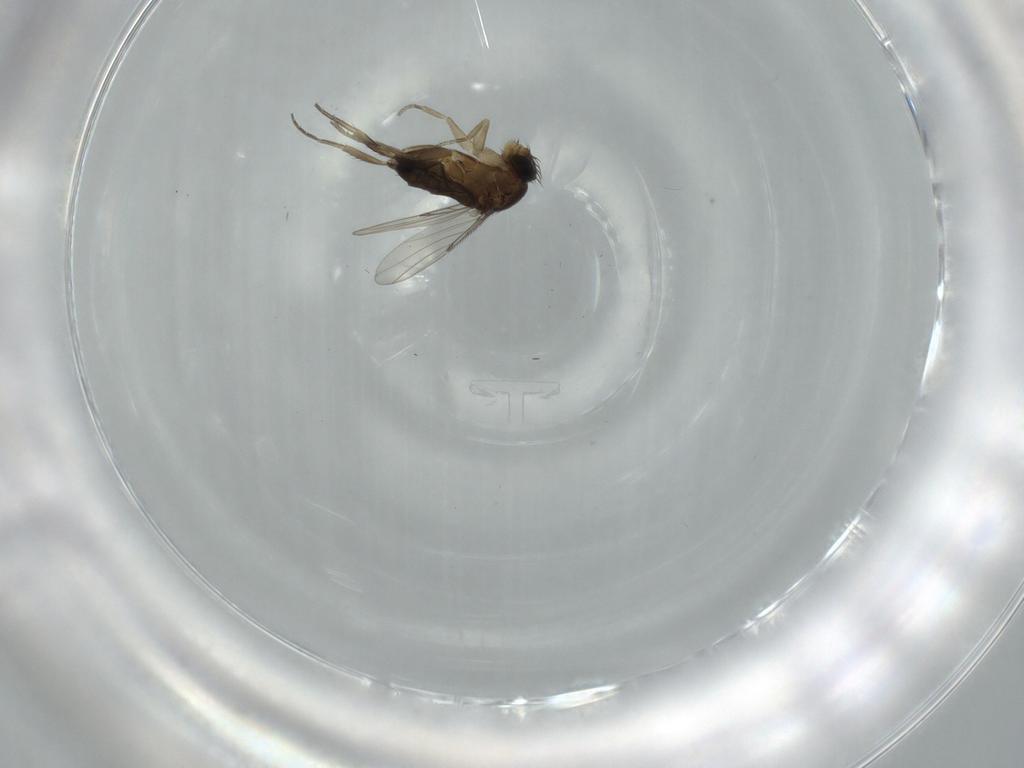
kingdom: Animalia
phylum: Arthropoda
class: Insecta
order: Diptera
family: Phoridae
